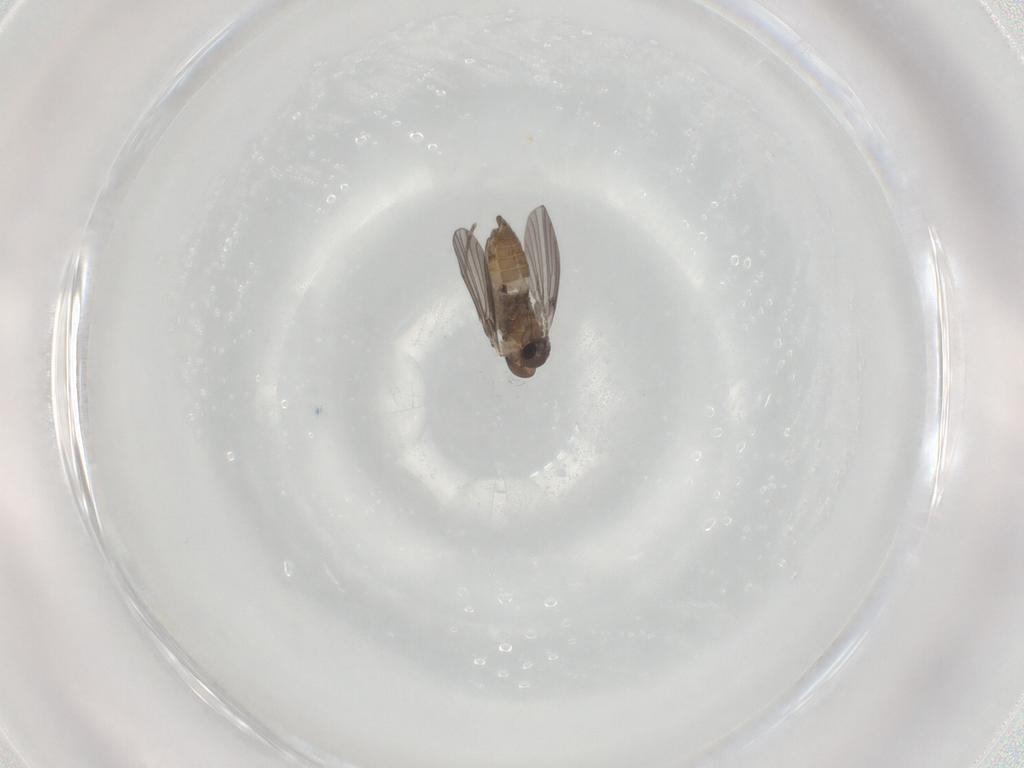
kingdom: Animalia
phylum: Arthropoda
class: Insecta
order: Diptera
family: Psychodidae
